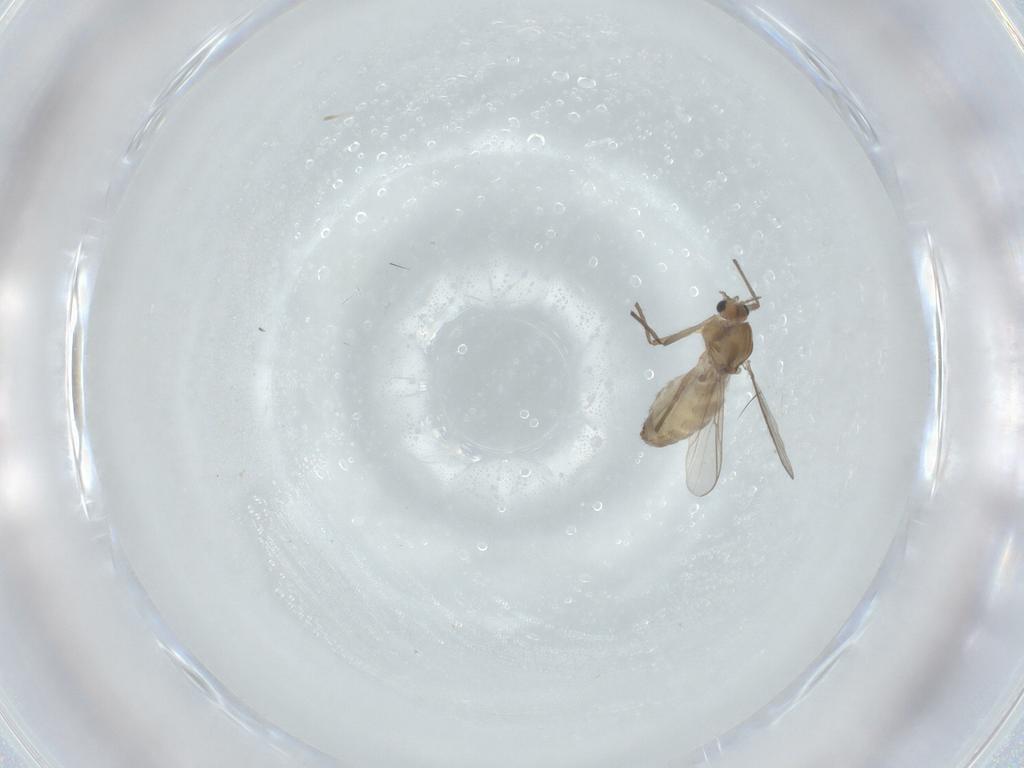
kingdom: Animalia
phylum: Arthropoda
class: Insecta
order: Diptera
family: Chironomidae
